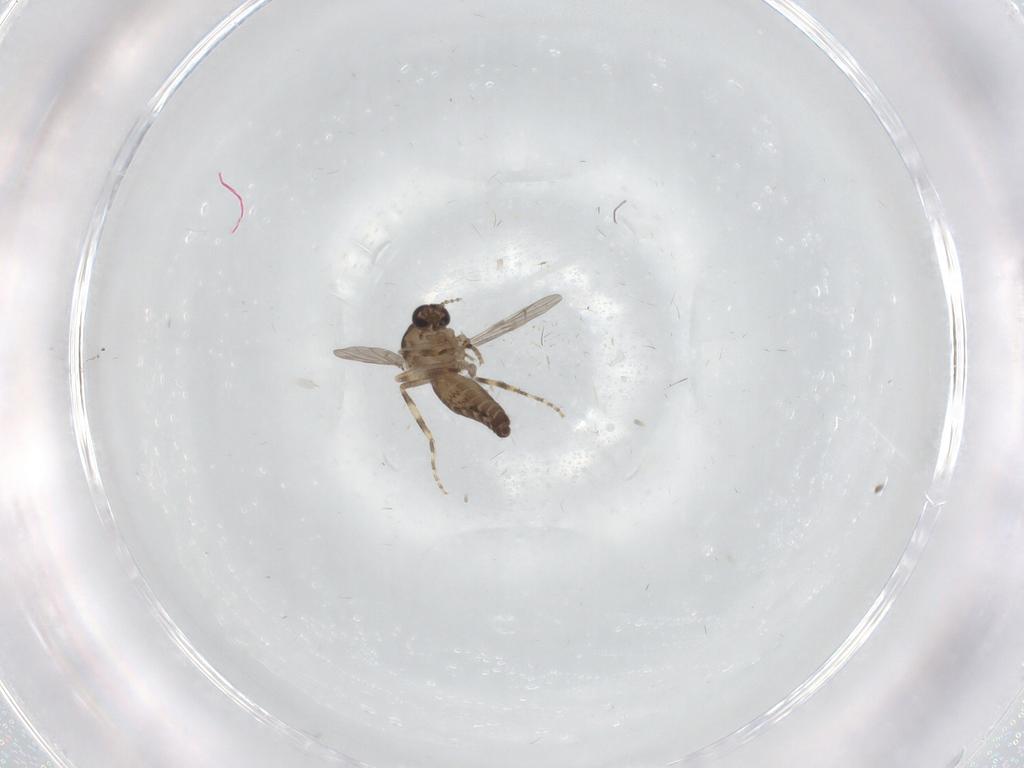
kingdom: Animalia
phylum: Arthropoda
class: Insecta
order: Diptera
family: Ceratopogonidae
